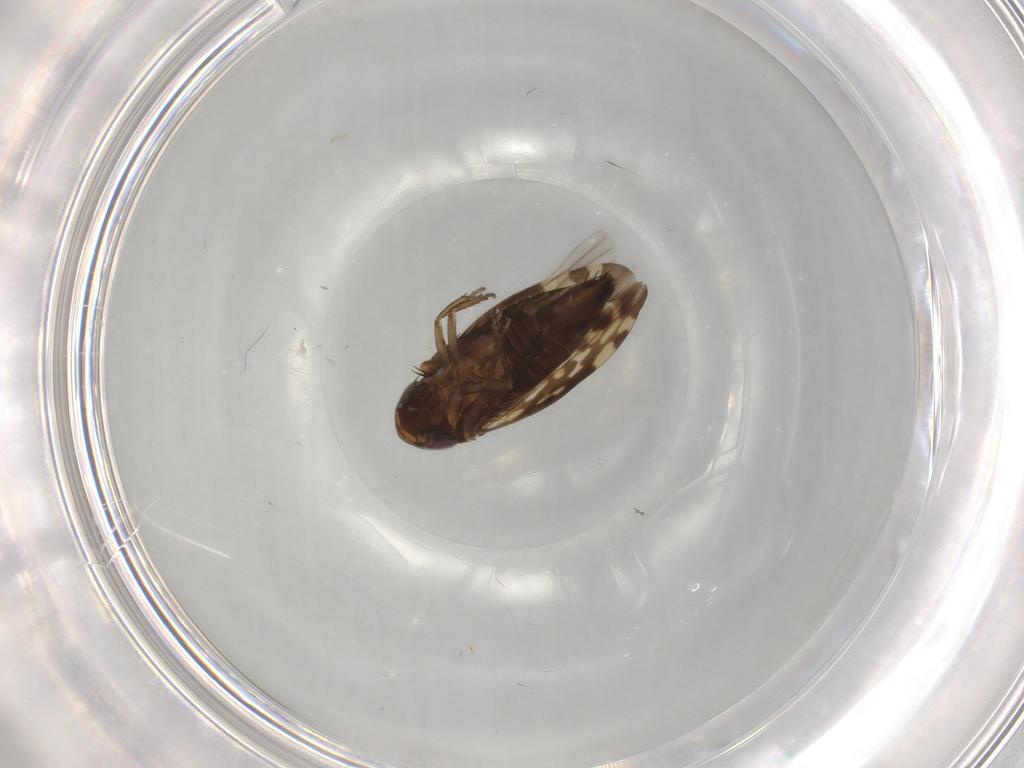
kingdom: Animalia
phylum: Arthropoda
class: Insecta
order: Hemiptera
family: Cicadellidae
